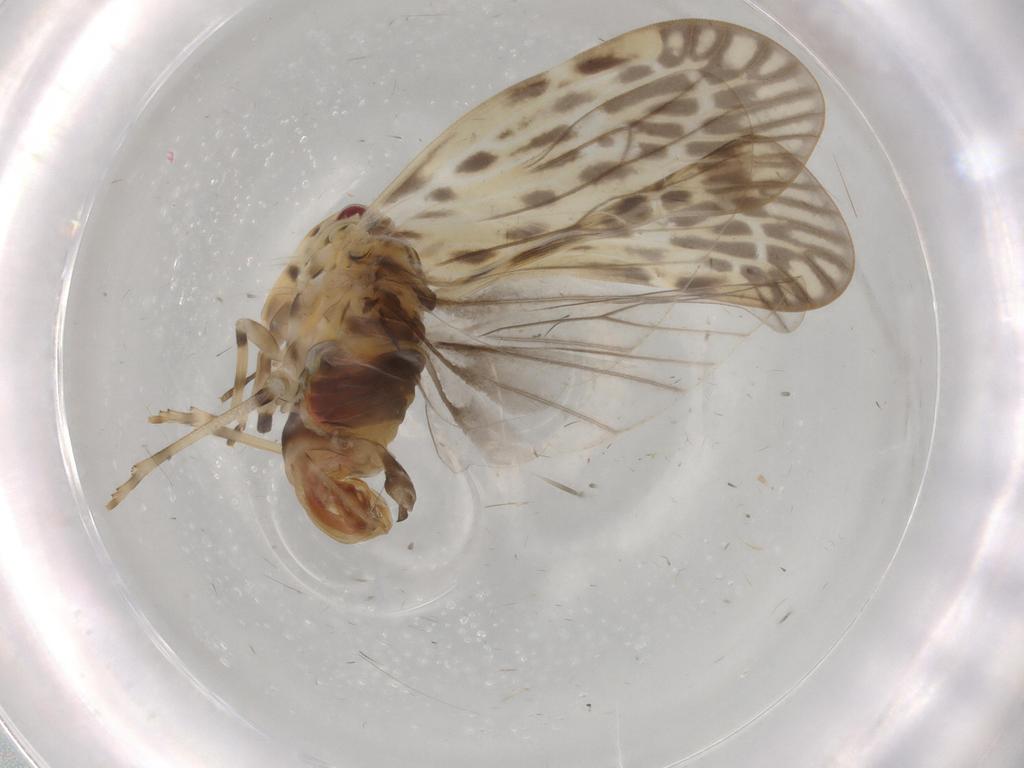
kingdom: Animalia
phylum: Arthropoda
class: Insecta
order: Hemiptera
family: Derbidae
